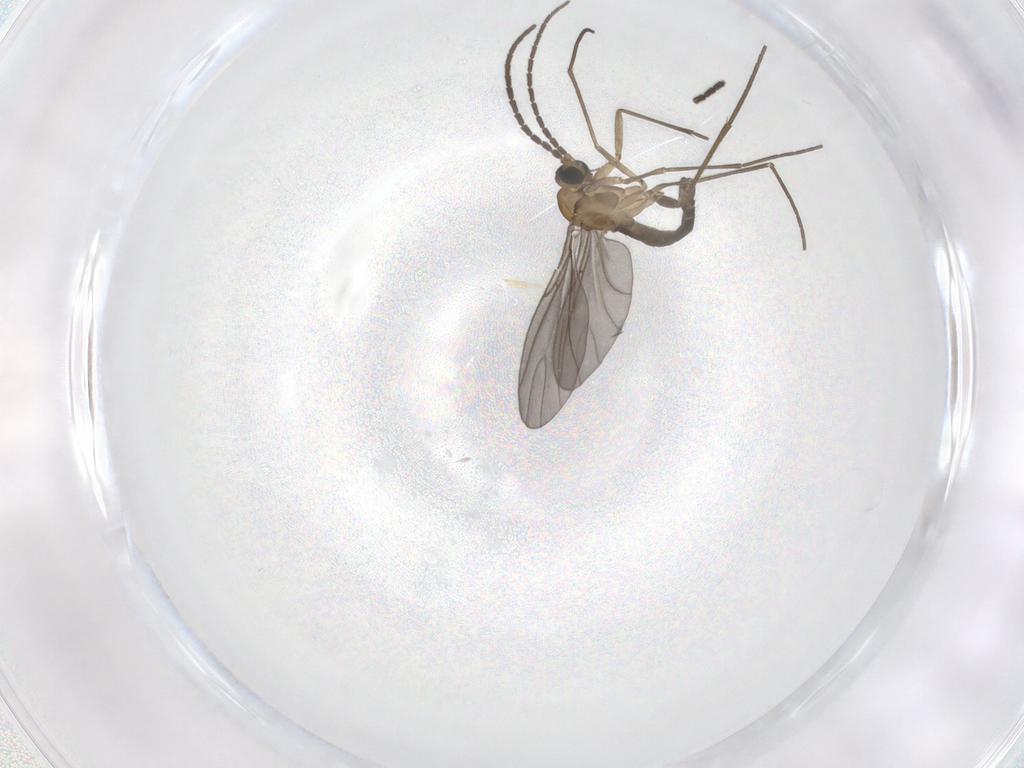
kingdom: Animalia
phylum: Arthropoda
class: Insecta
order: Diptera
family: Sciaridae
